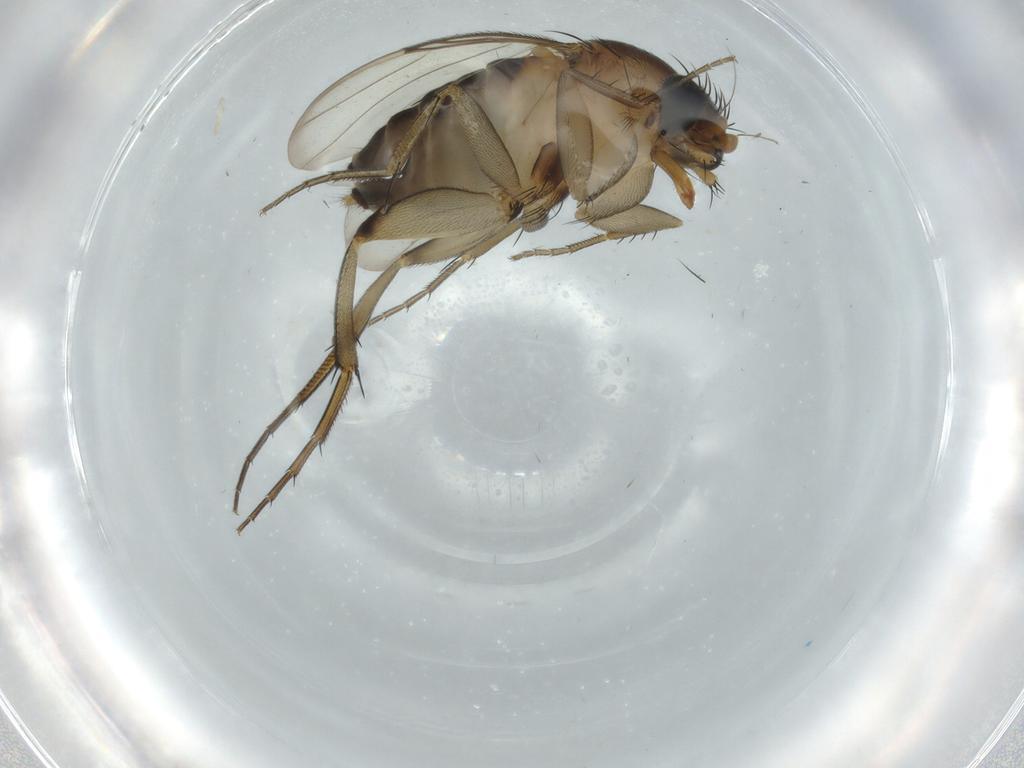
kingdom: Animalia
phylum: Arthropoda
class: Insecta
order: Diptera
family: Phoridae
